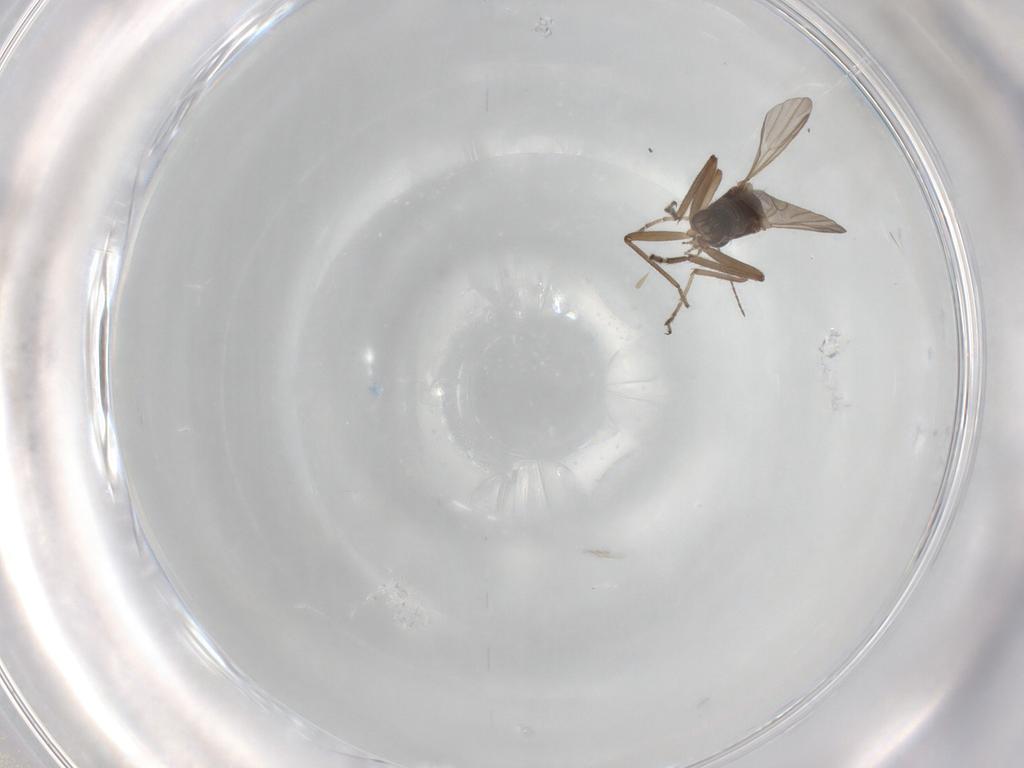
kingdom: Animalia
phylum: Arthropoda
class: Insecta
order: Diptera
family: Ceratopogonidae
